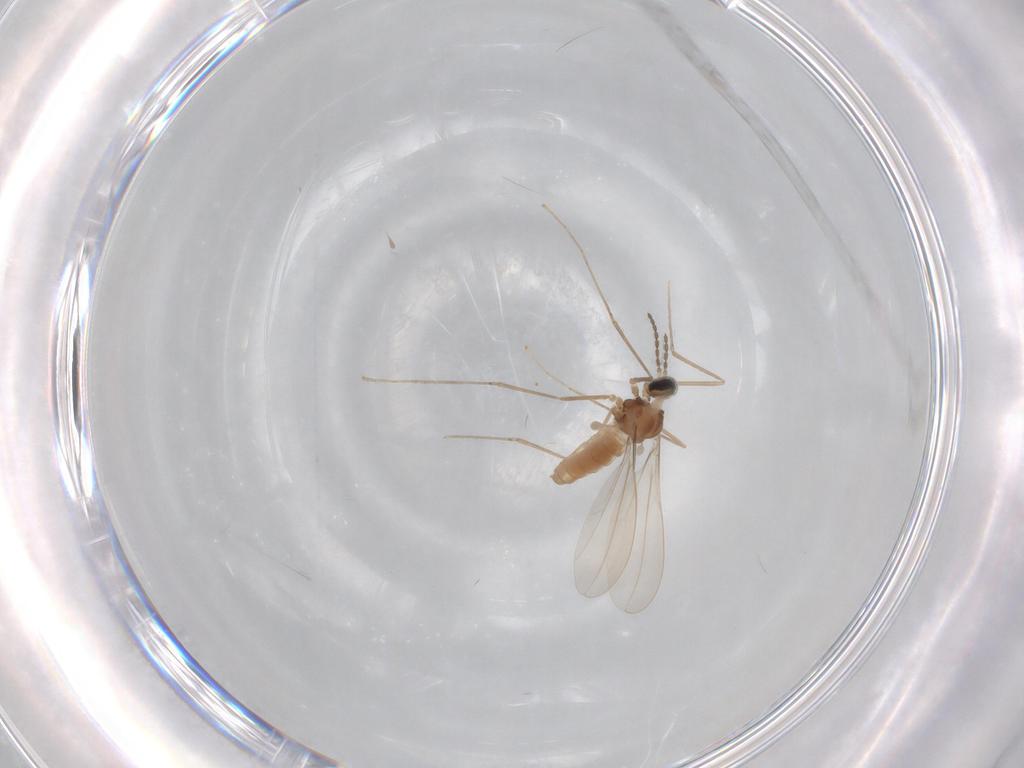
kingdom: Animalia
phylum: Arthropoda
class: Insecta
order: Diptera
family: Cecidomyiidae
